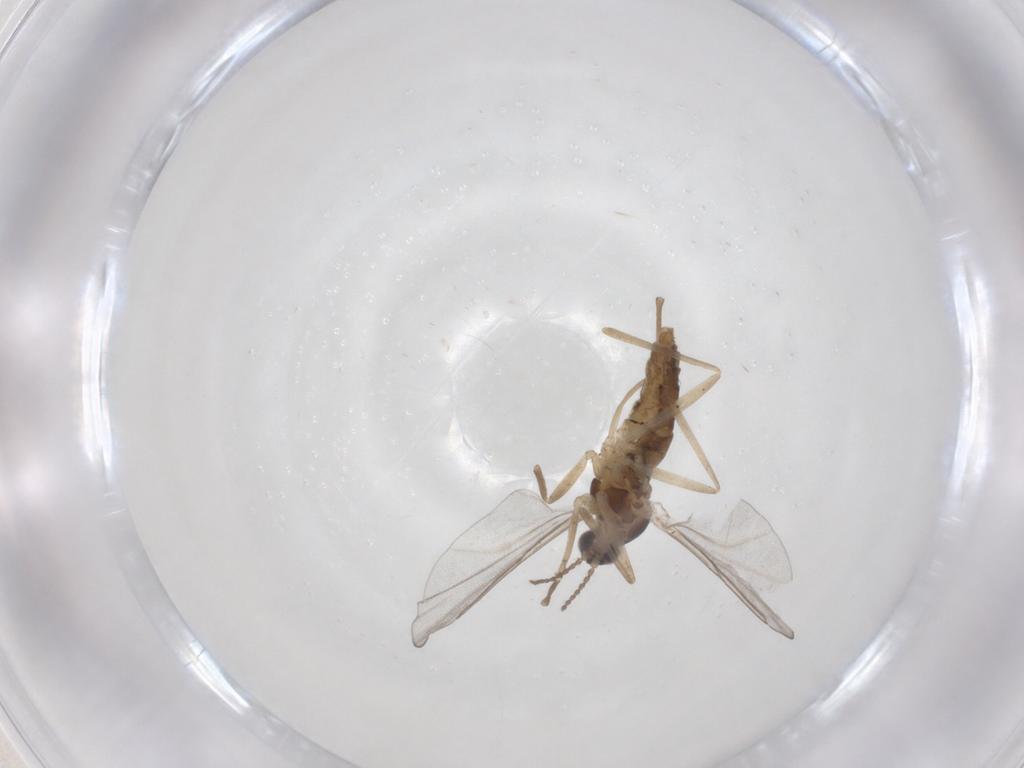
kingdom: Animalia
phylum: Arthropoda
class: Insecta
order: Diptera
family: Cecidomyiidae
